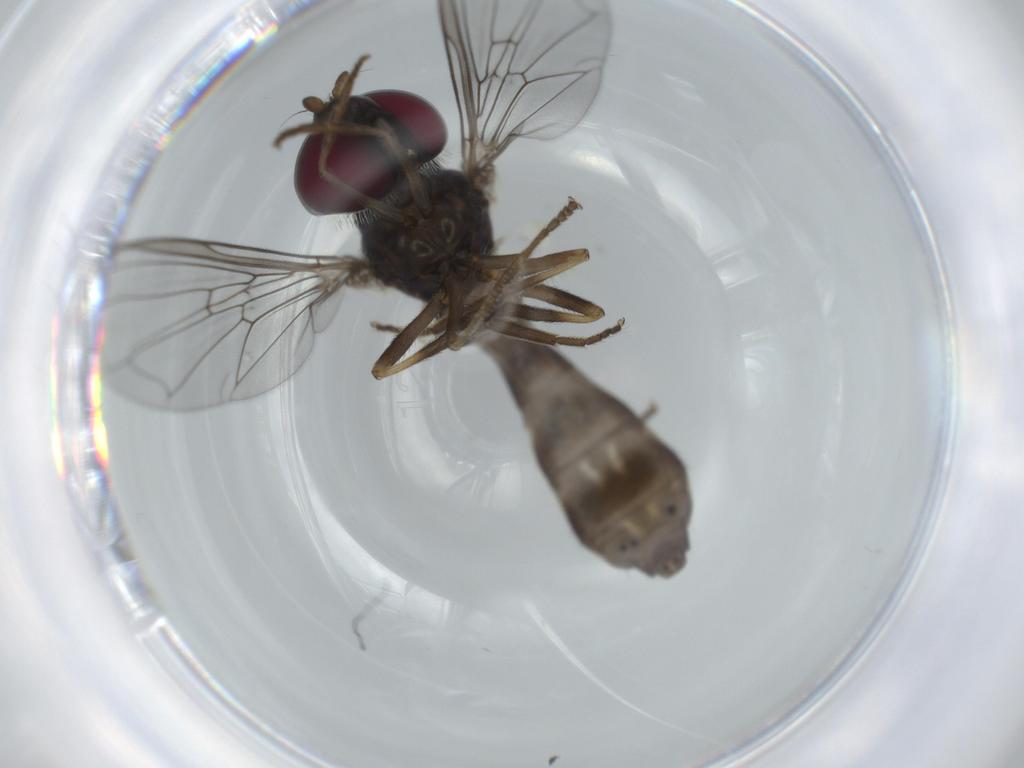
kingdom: Animalia
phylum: Arthropoda
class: Insecta
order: Diptera
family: Syrphidae
